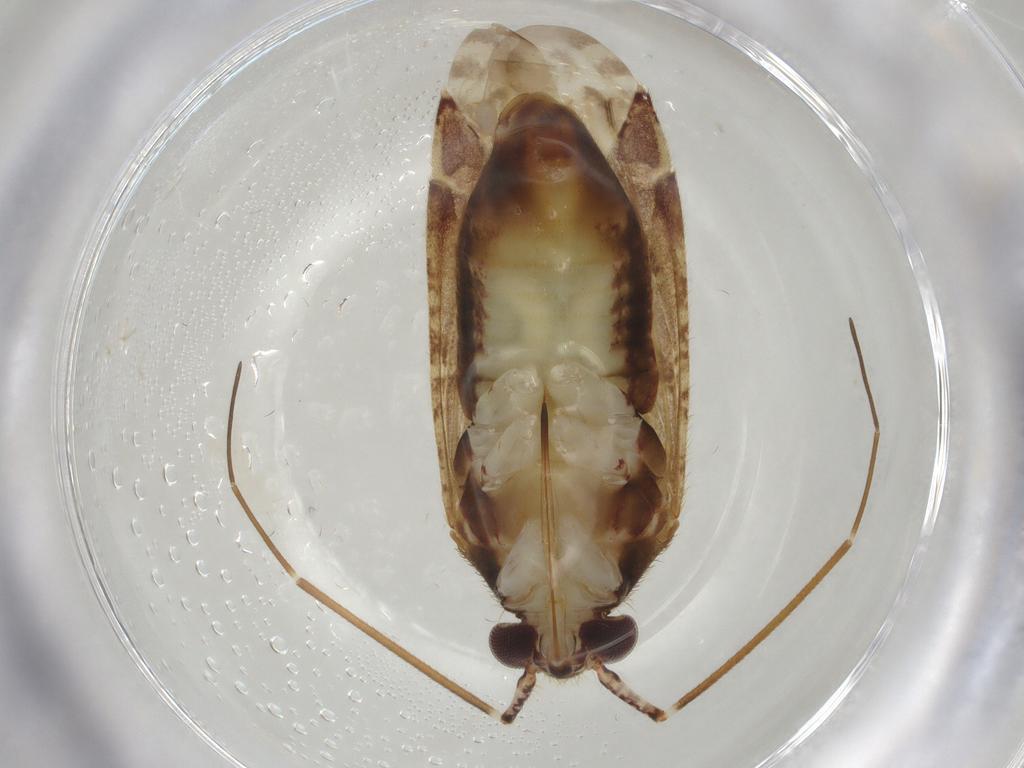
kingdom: Animalia
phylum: Arthropoda
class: Insecta
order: Hemiptera
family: Miridae
